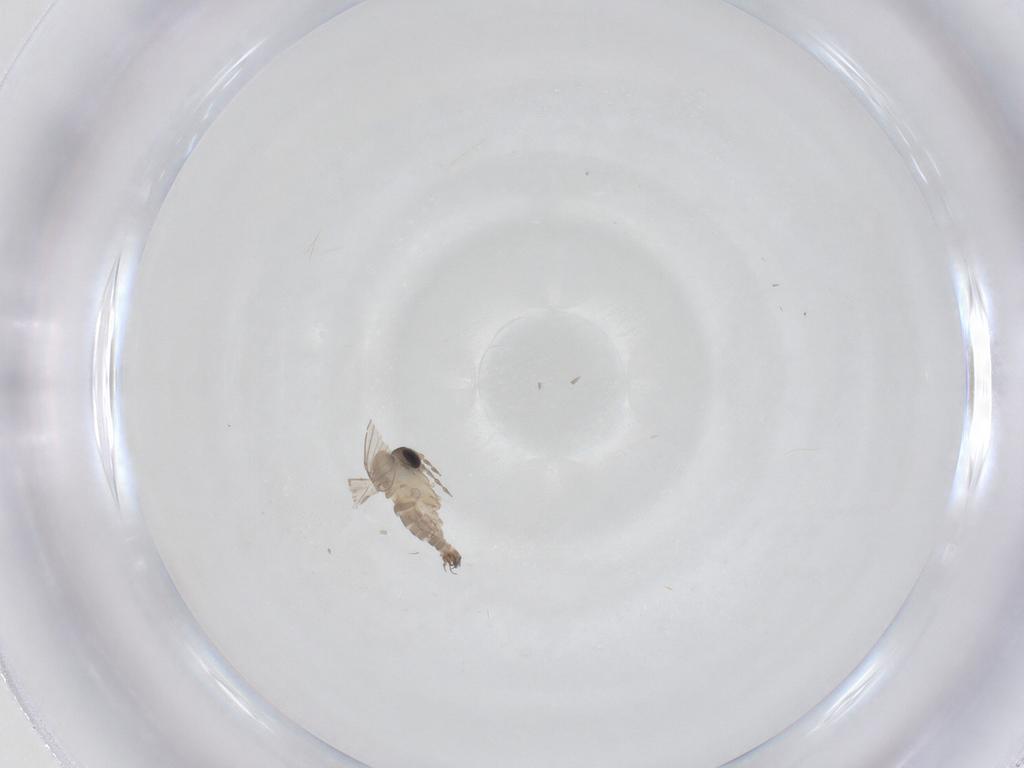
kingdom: Animalia
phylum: Arthropoda
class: Insecta
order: Diptera
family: Psychodidae
